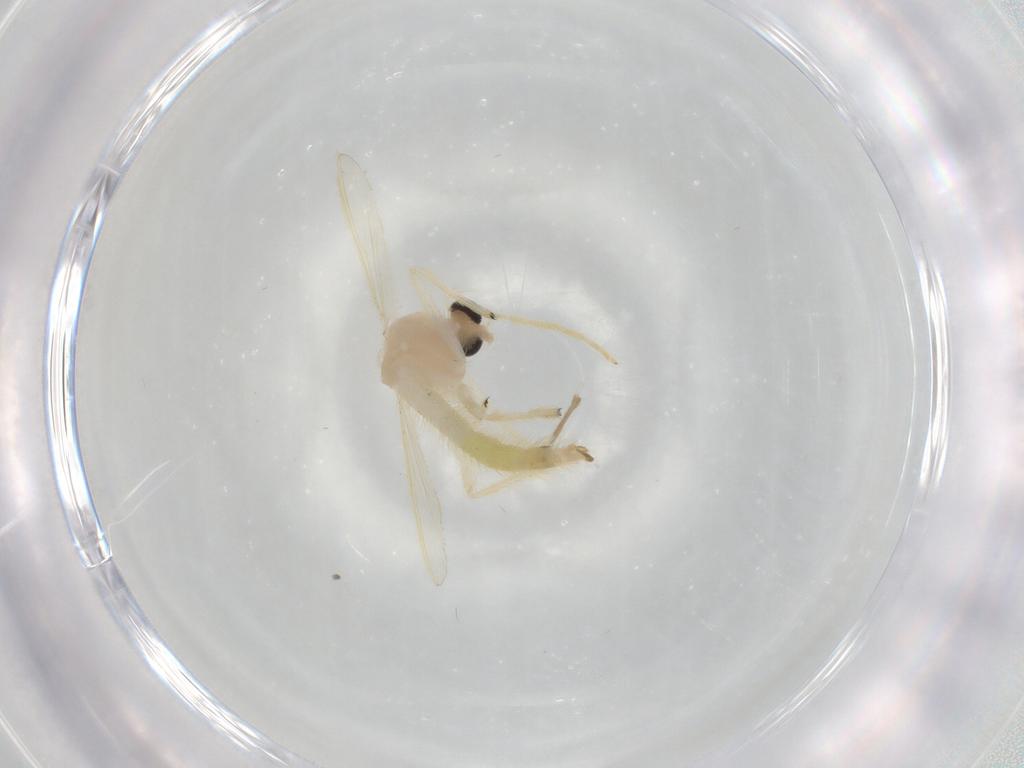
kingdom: Animalia
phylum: Arthropoda
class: Insecta
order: Diptera
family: Chironomidae
